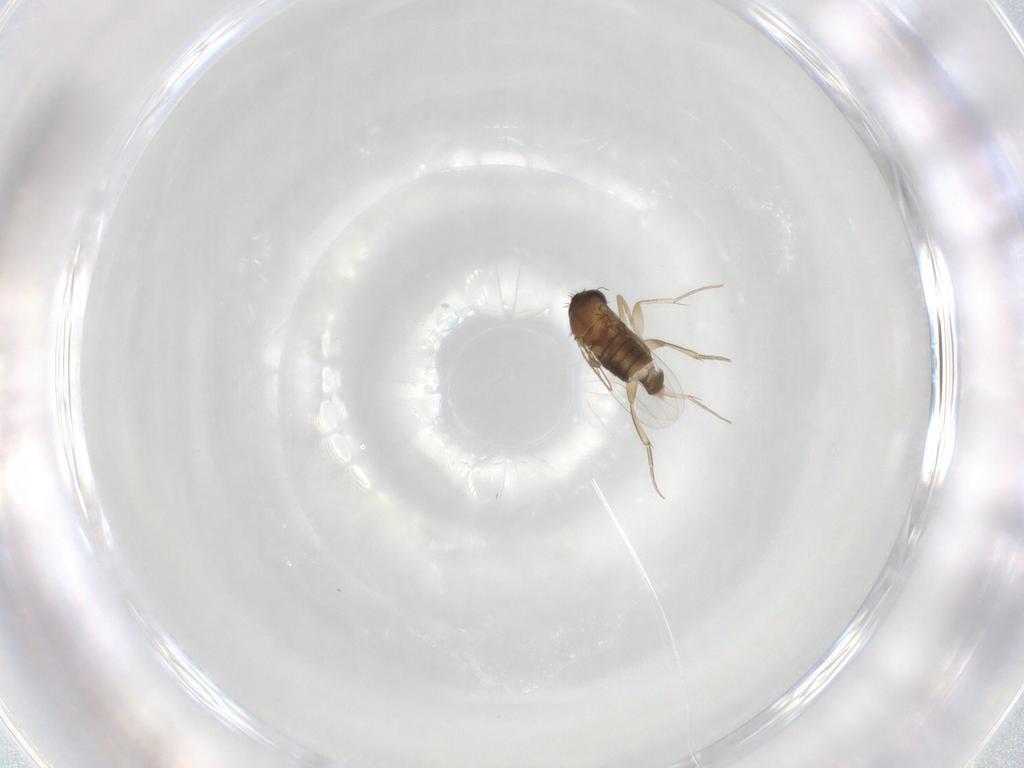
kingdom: Animalia
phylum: Arthropoda
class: Insecta
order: Diptera
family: Phoridae
